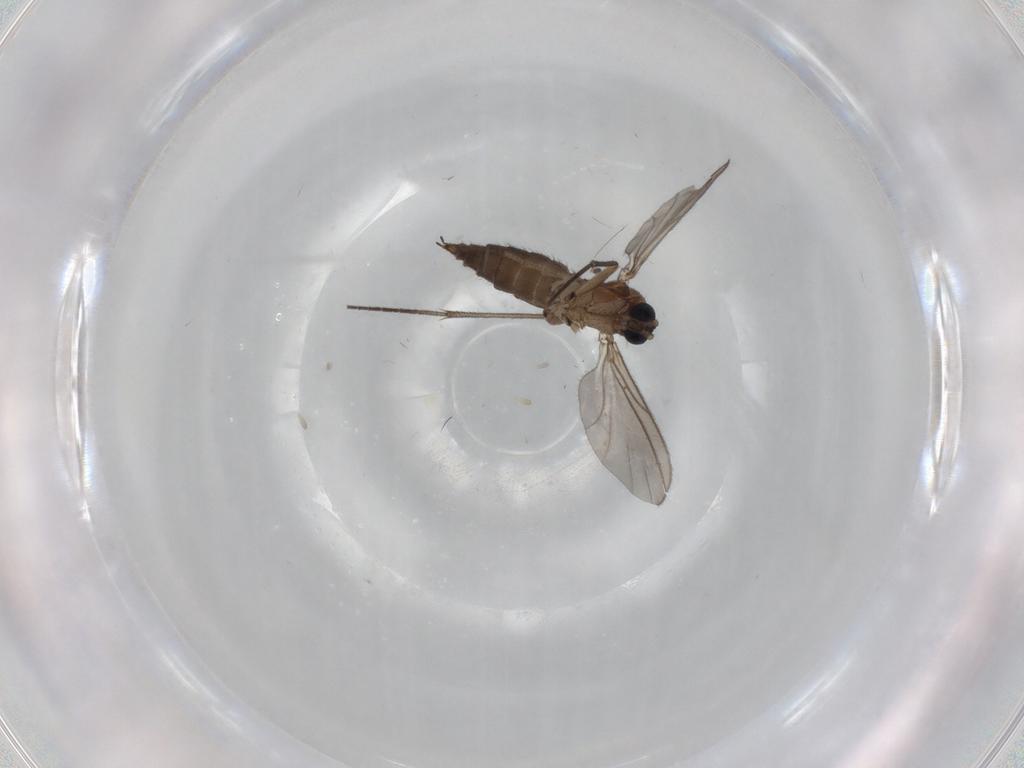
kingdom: Animalia
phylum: Arthropoda
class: Insecta
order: Diptera
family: Sciaridae
